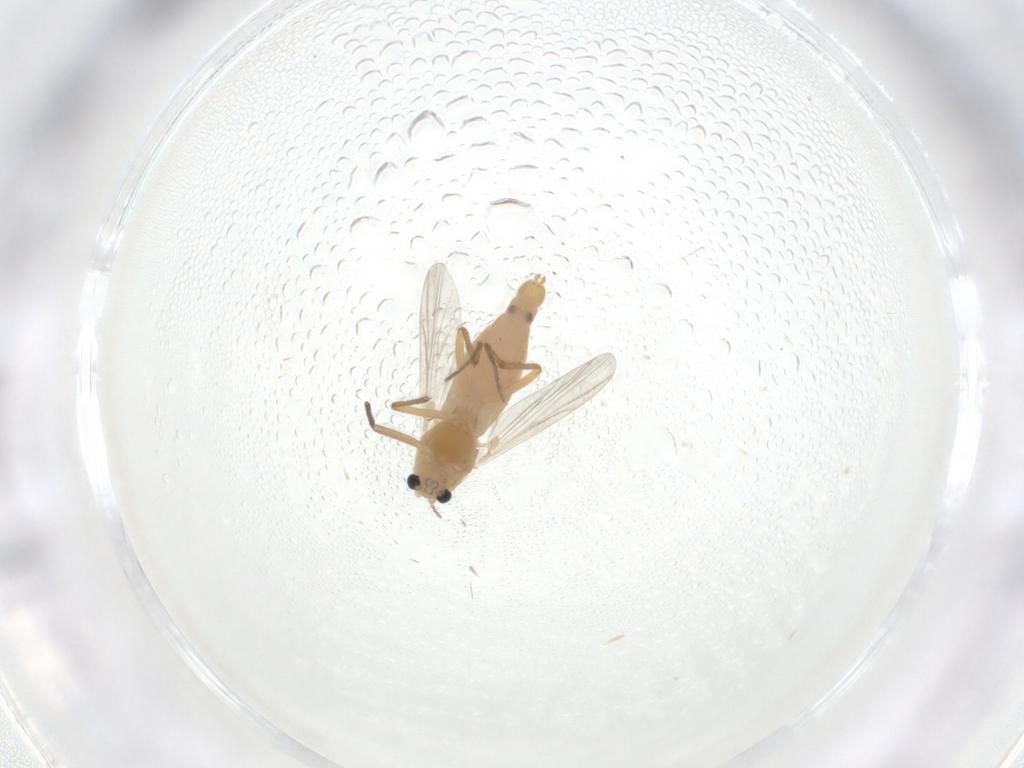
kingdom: Animalia
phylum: Arthropoda
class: Insecta
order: Diptera
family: Chironomidae
